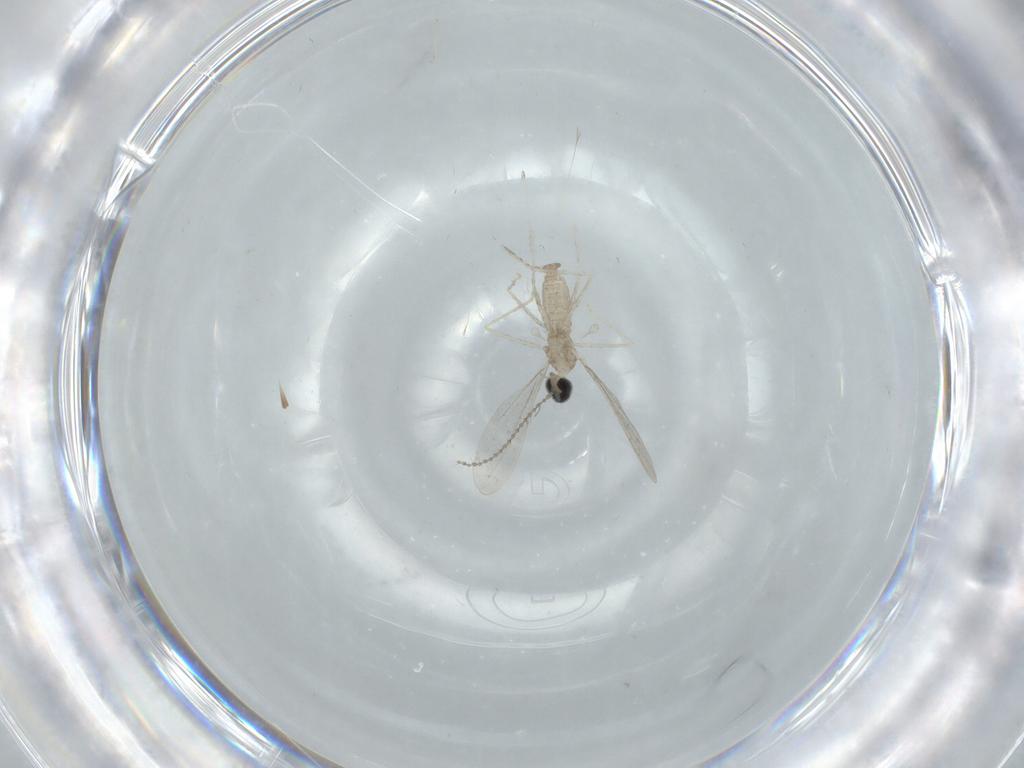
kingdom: Animalia
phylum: Arthropoda
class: Insecta
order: Diptera
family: Cecidomyiidae
